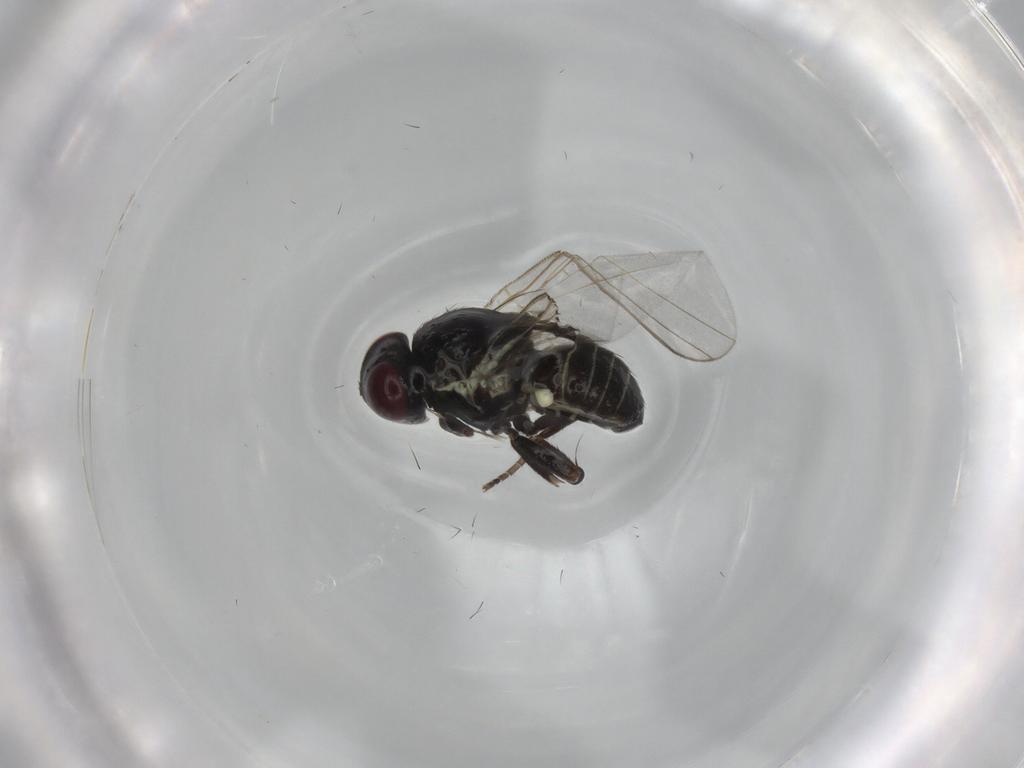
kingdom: Animalia
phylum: Arthropoda
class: Insecta
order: Diptera
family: Agromyzidae
